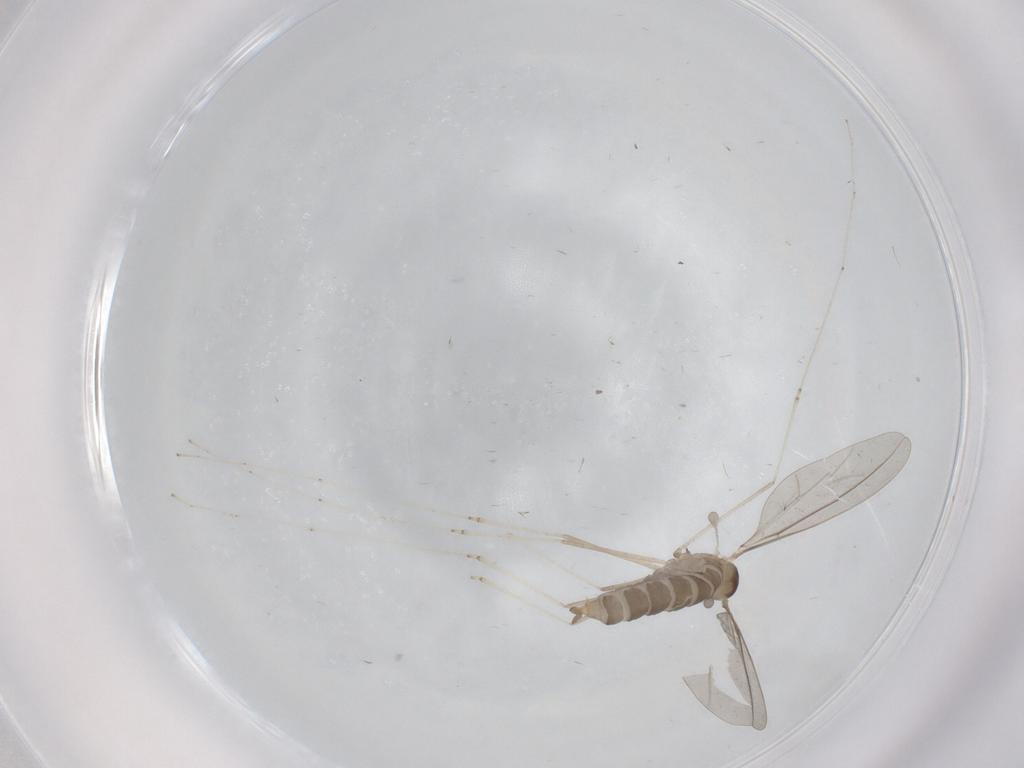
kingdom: Animalia
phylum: Arthropoda
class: Insecta
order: Diptera
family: Cecidomyiidae
